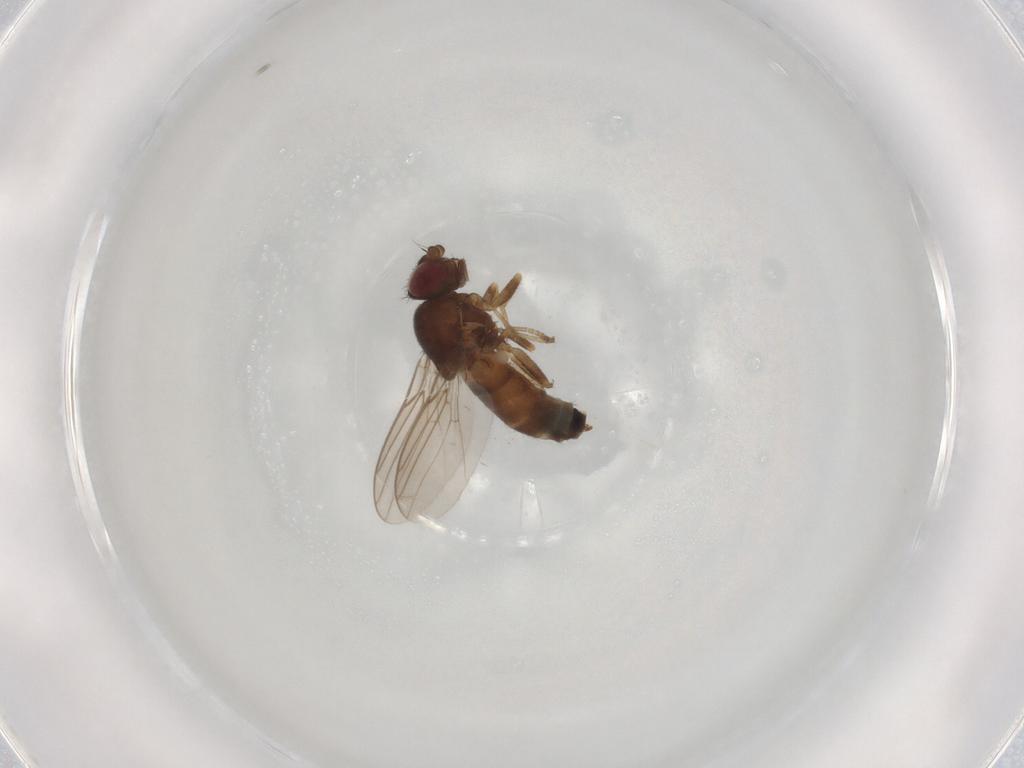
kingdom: Animalia
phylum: Arthropoda
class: Insecta
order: Diptera
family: Chloropidae
